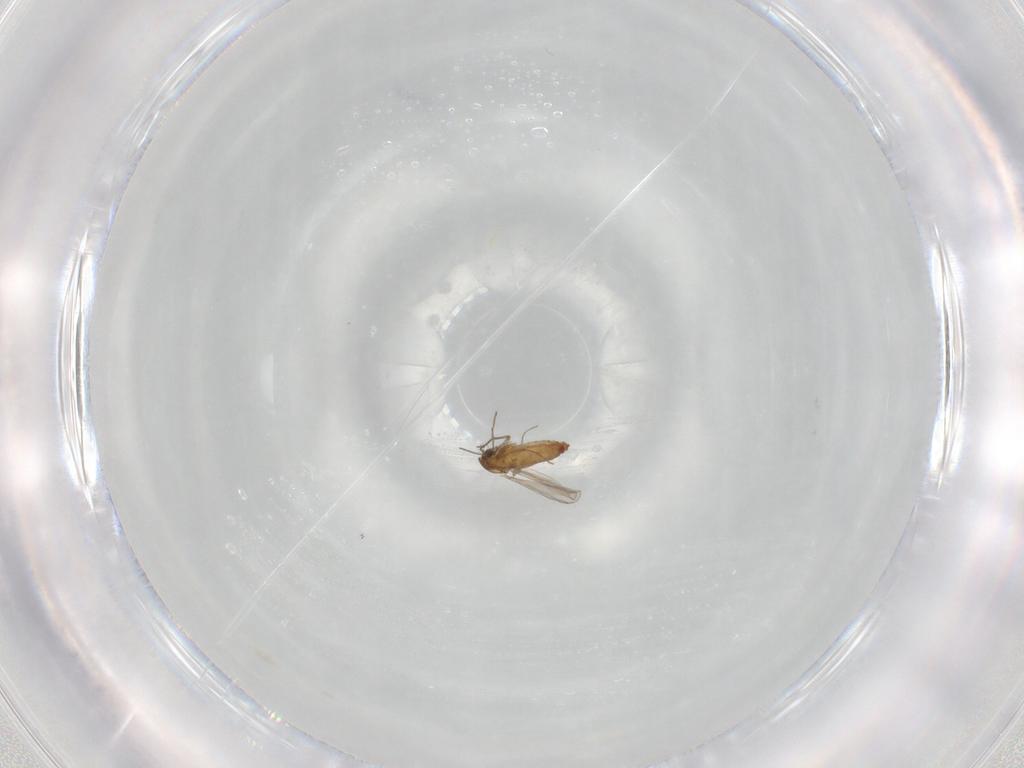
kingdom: Animalia
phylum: Arthropoda
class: Insecta
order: Diptera
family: Chironomidae
